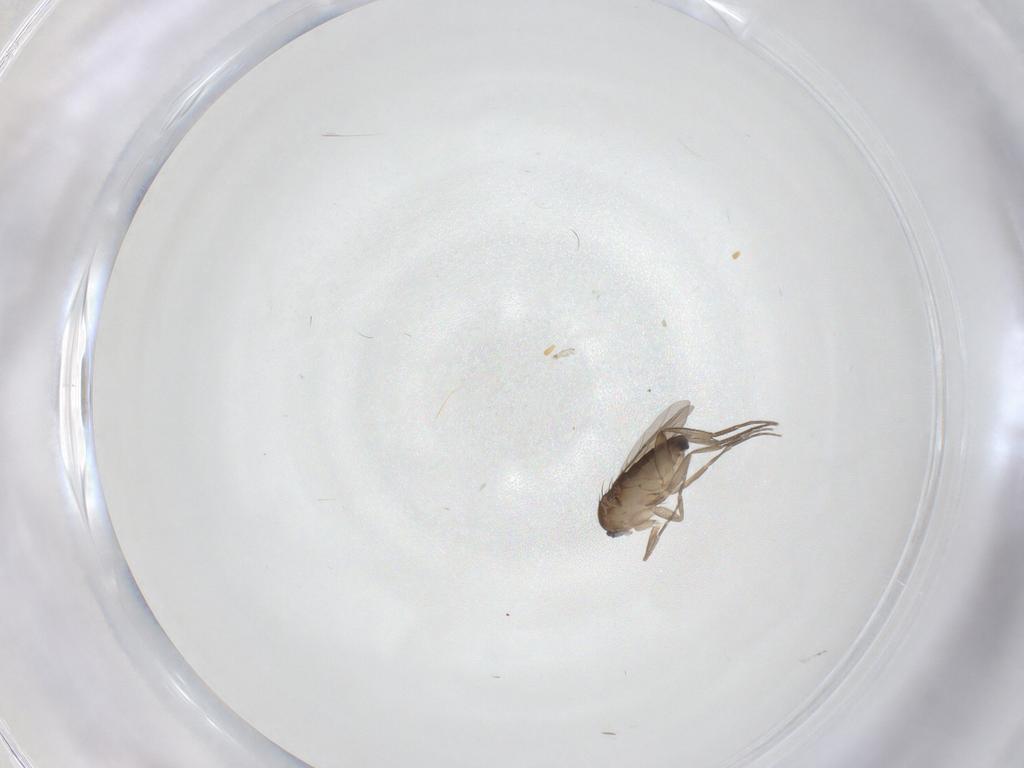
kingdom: Animalia
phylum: Arthropoda
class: Insecta
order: Diptera
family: Phoridae
